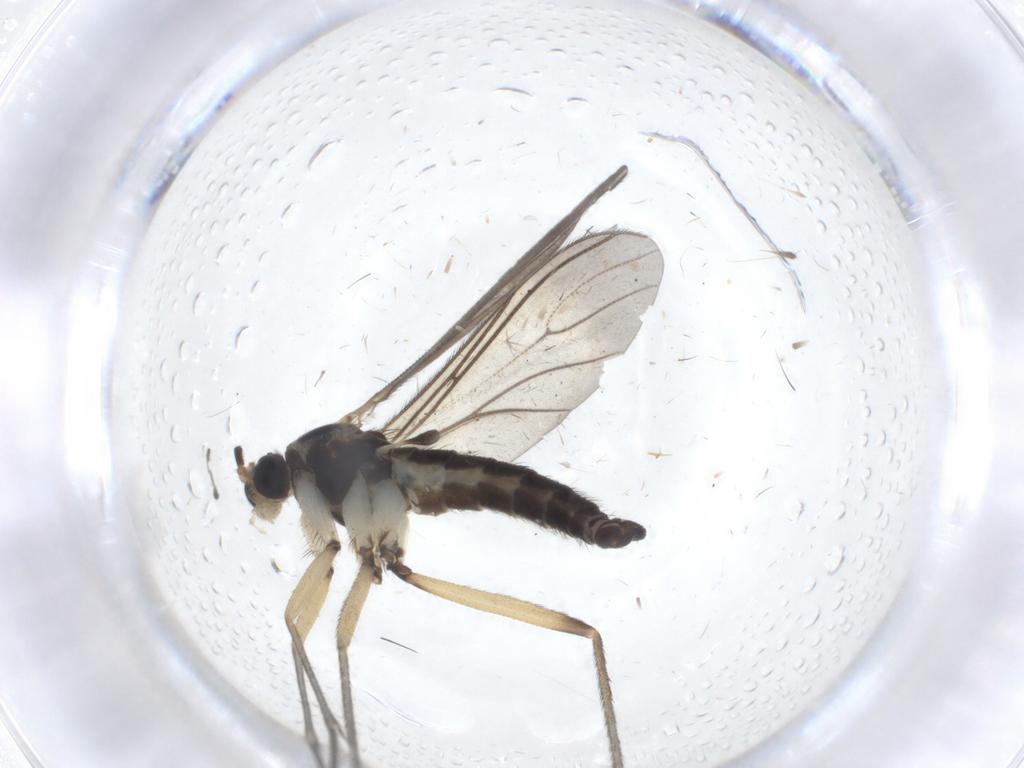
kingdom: Animalia
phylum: Arthropoda
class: Insecta
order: Diptera
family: Sciaridae
